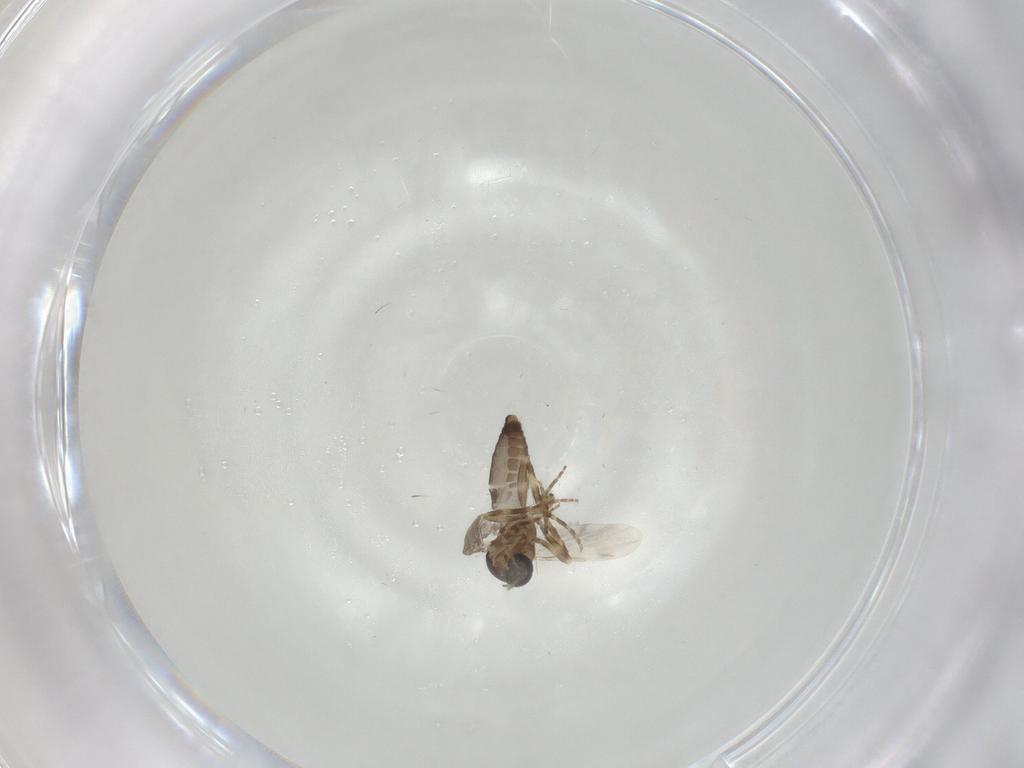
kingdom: Animalia
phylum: Arthropoda
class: Insecta
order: Diptera
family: Ceratopogonidae
